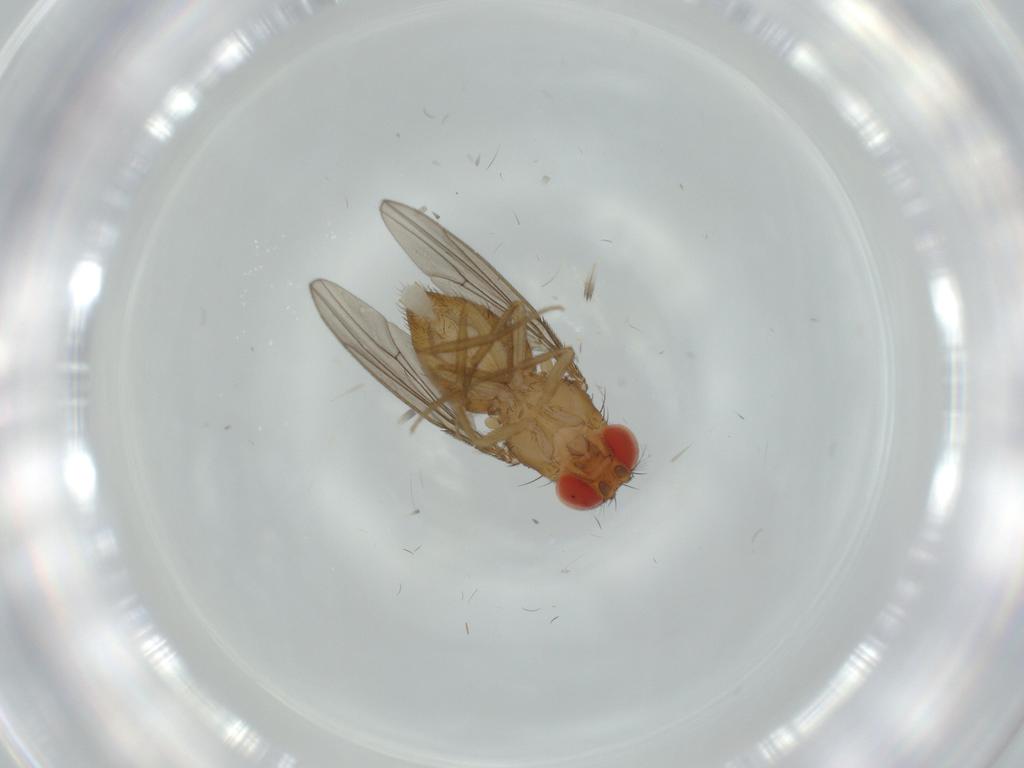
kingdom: Animalia
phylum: Arthropoda
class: Insecta
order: Diptera
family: Drosophilidae
